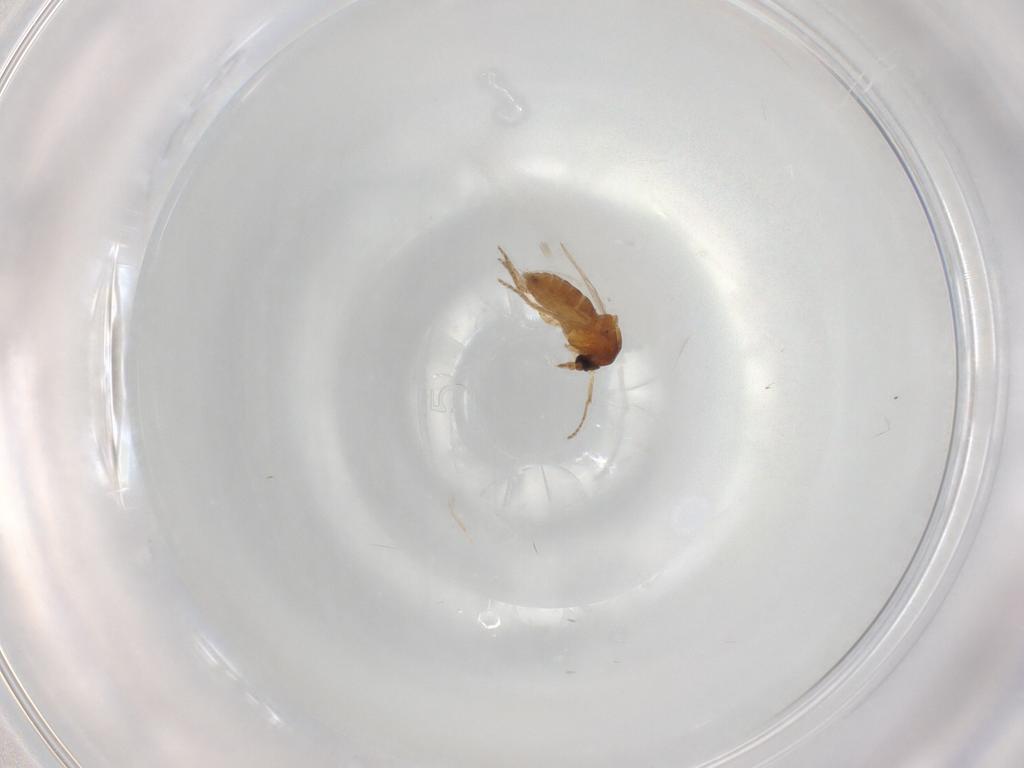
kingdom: Animalia
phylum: Arthropoda
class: Insecta
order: Diptera
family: Ceratopogonidae
